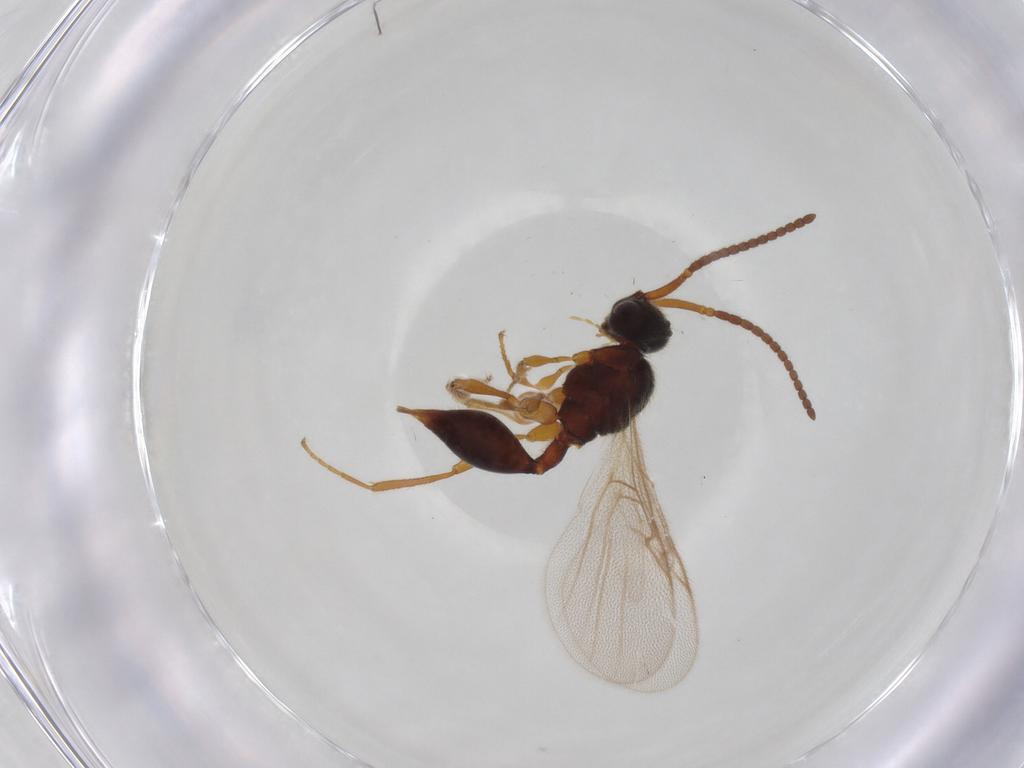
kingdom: Animalia
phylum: Arthropoda
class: Insecta
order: Hymenoptera
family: Diapriidae
